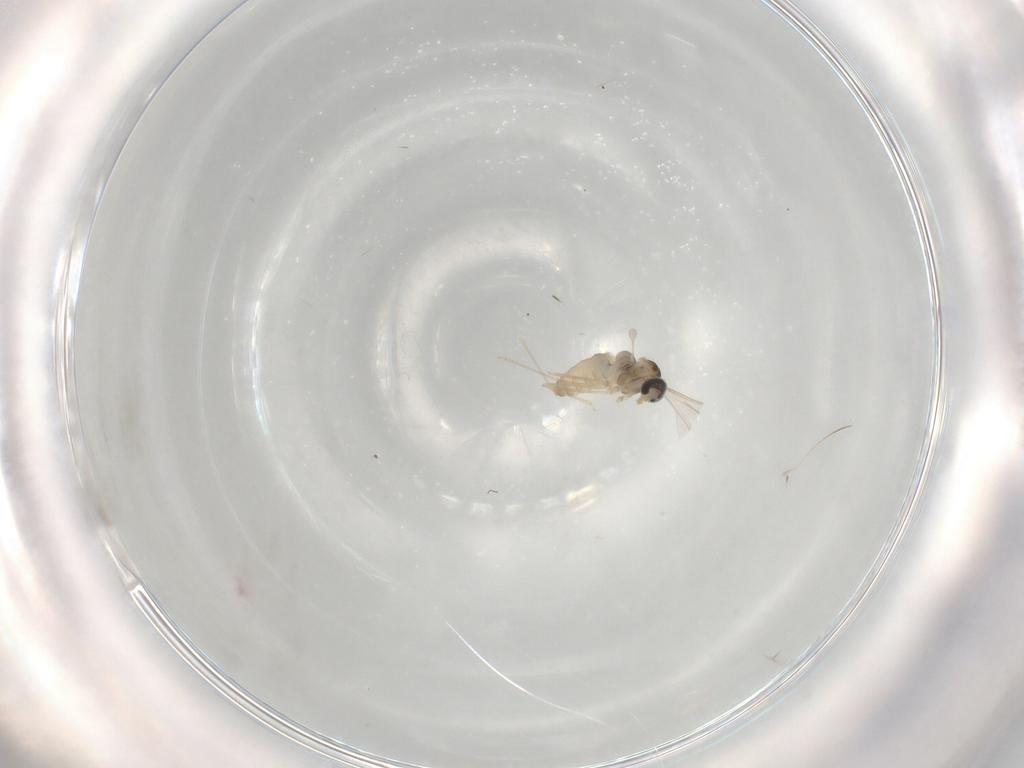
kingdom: Animalia
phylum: Arthropoda
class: Insecta
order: Diptera
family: Cecidomyiidae
